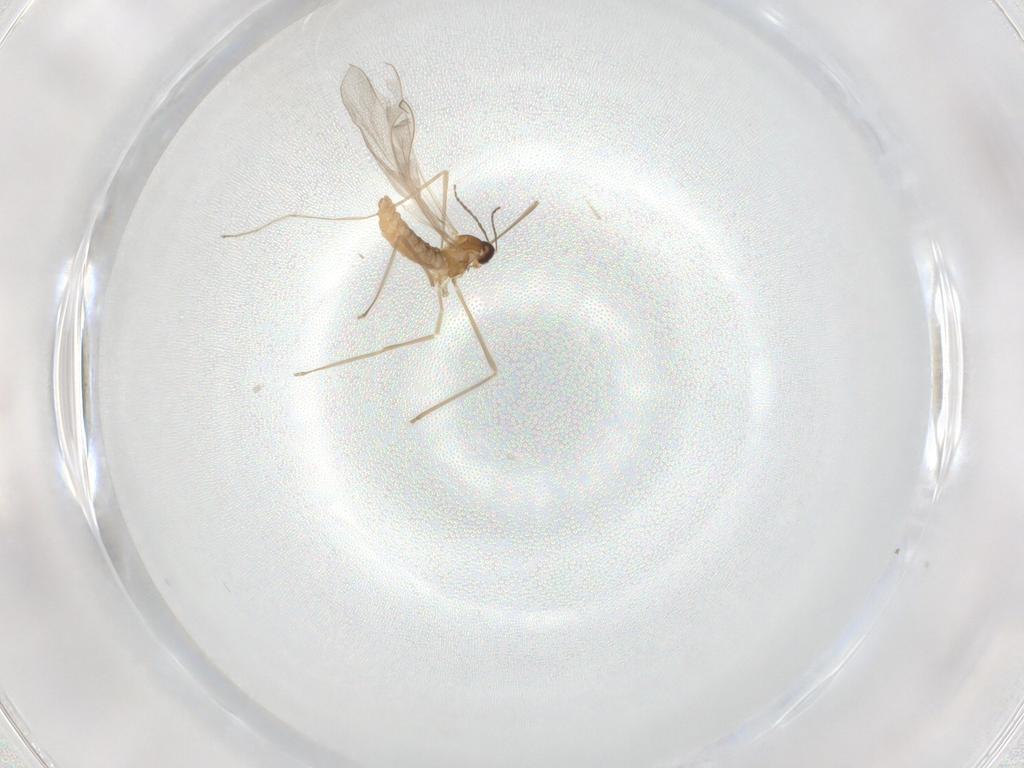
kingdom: Animalia
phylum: Arthropoda
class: Insecta
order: Diptera
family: Cecidomyiidae
